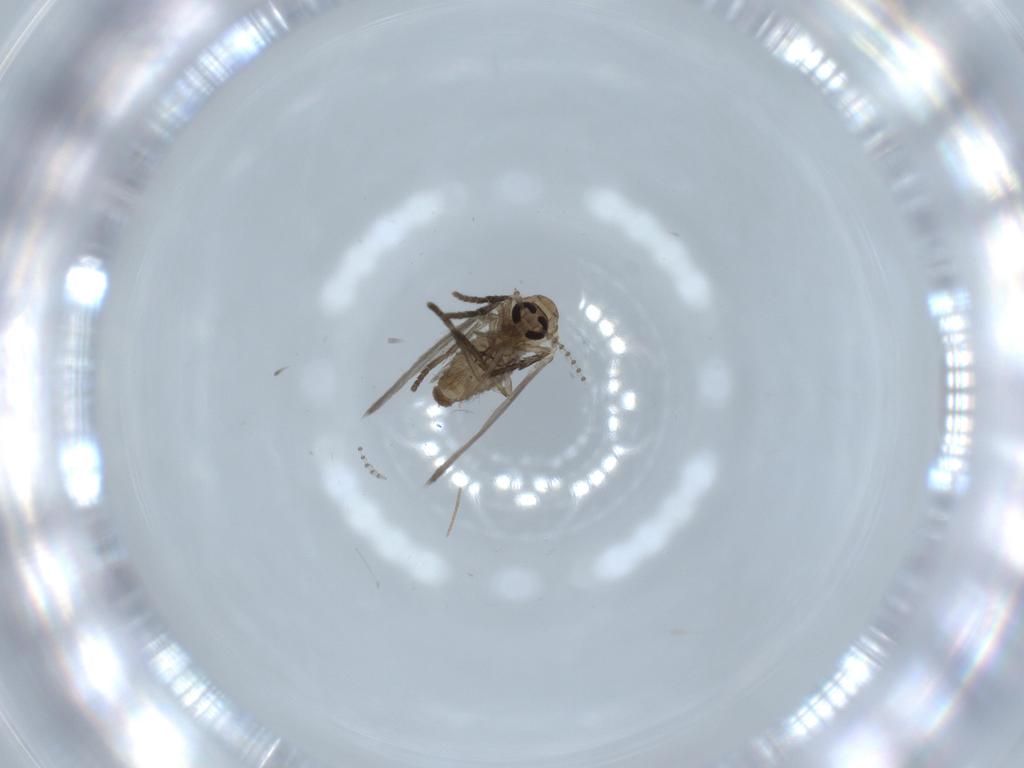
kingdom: Animalia
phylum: Arthropoda
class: Insecta
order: Diptera
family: Psychodidae
